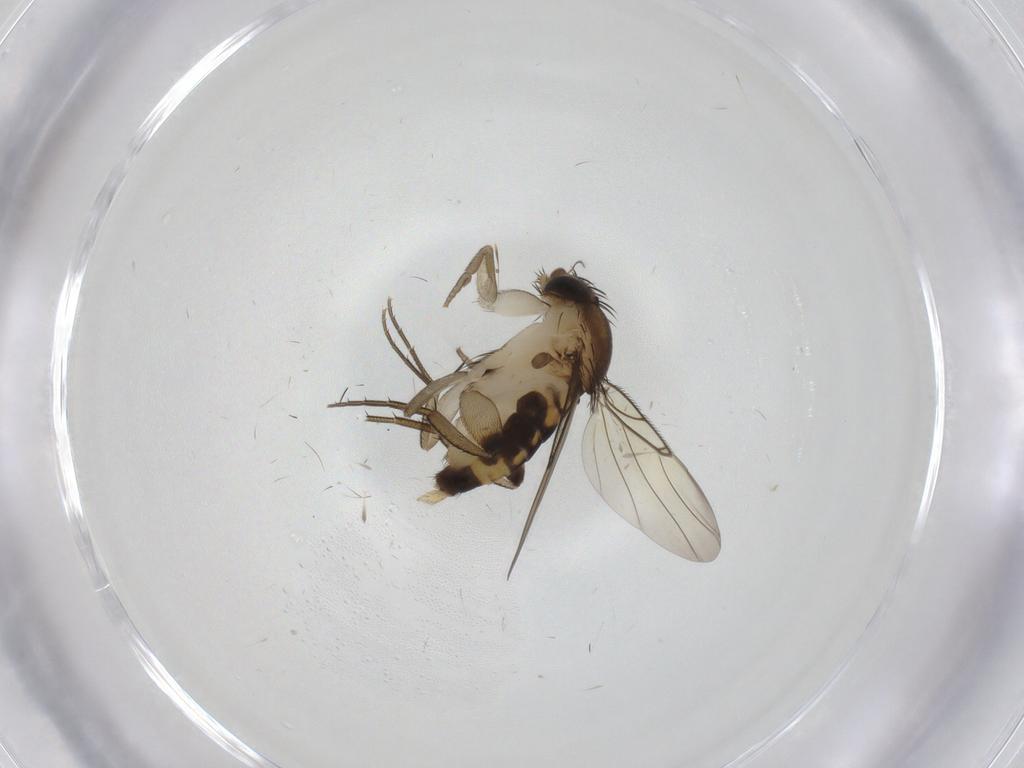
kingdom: Animalia
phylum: Arthropoda
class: Insecta
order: Diptera
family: Phoridae
